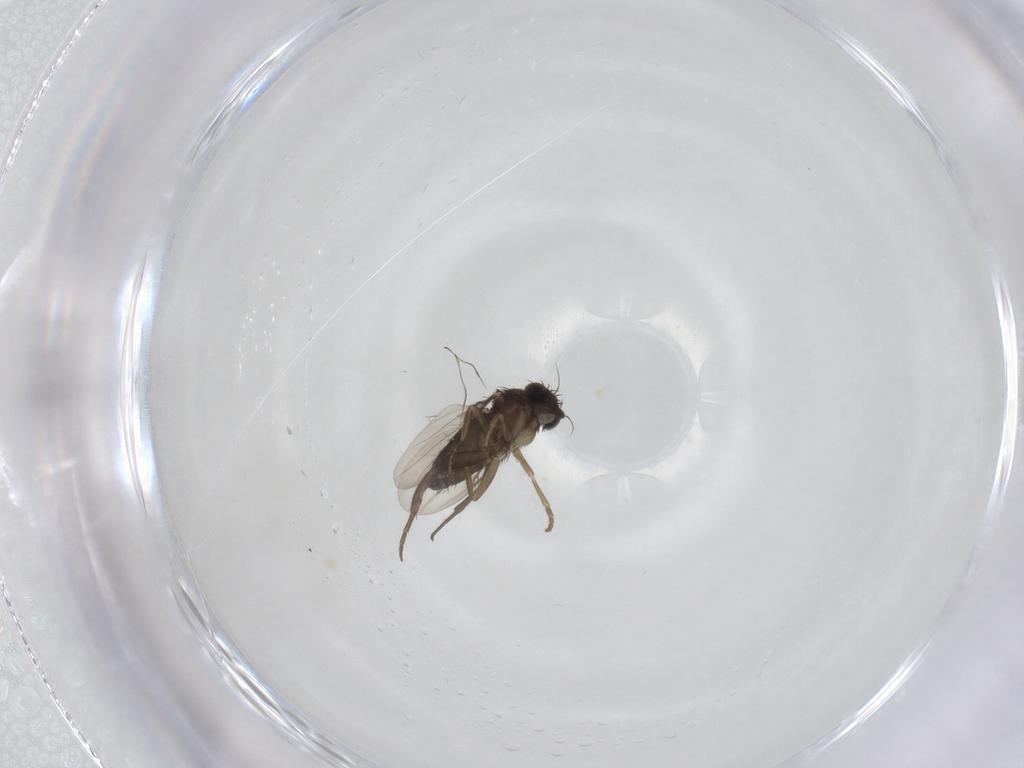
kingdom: Animalia
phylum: Arthropoda
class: Insecta
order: Diptera
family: Phoridae
